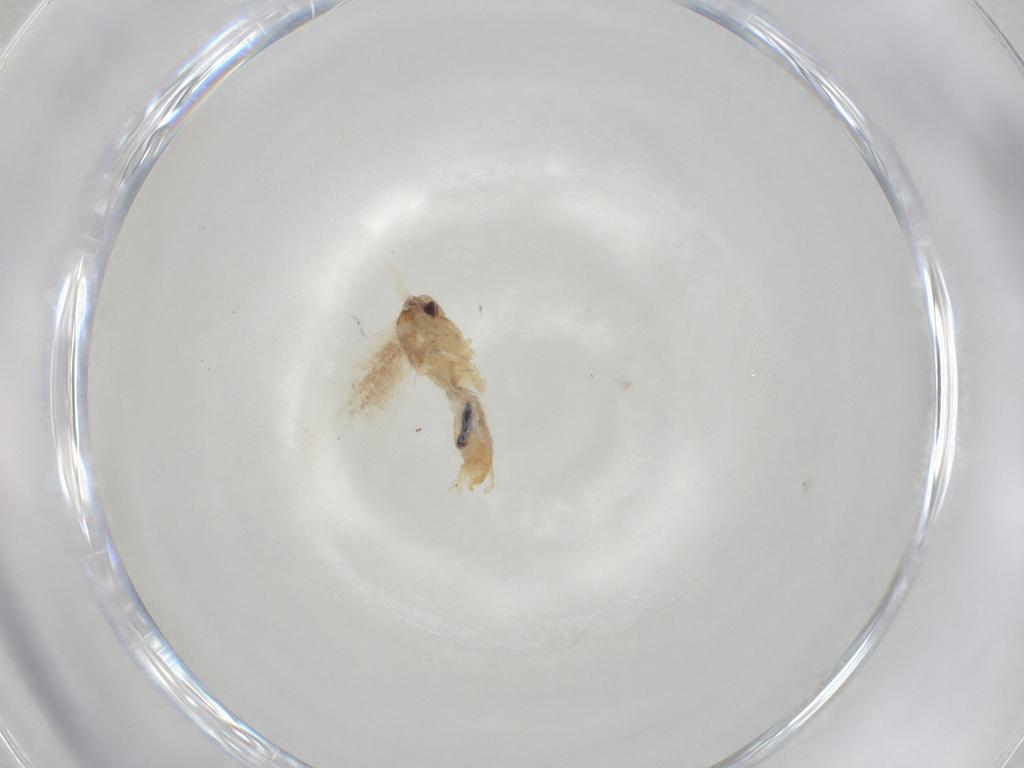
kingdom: Animalia
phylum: Arthropoda
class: Insecta
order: Lepidoptera
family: Bucculatricidae
